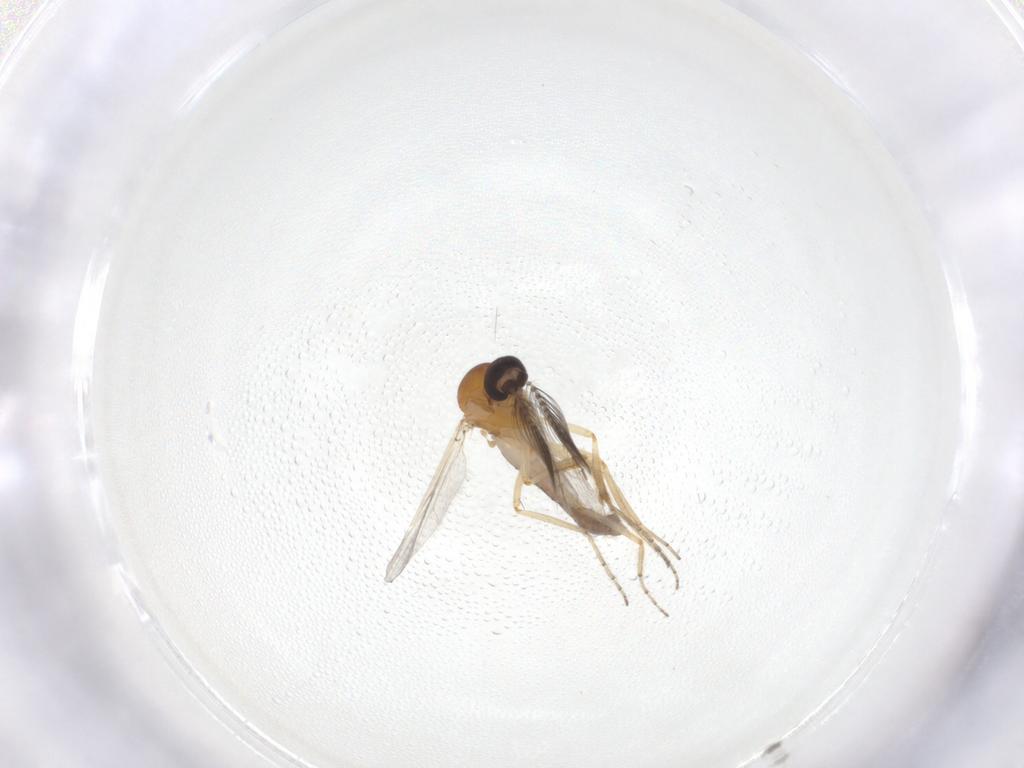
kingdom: Animalia
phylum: Arthropoda
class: Insecta
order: Diptera
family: Ceratopogonidae
